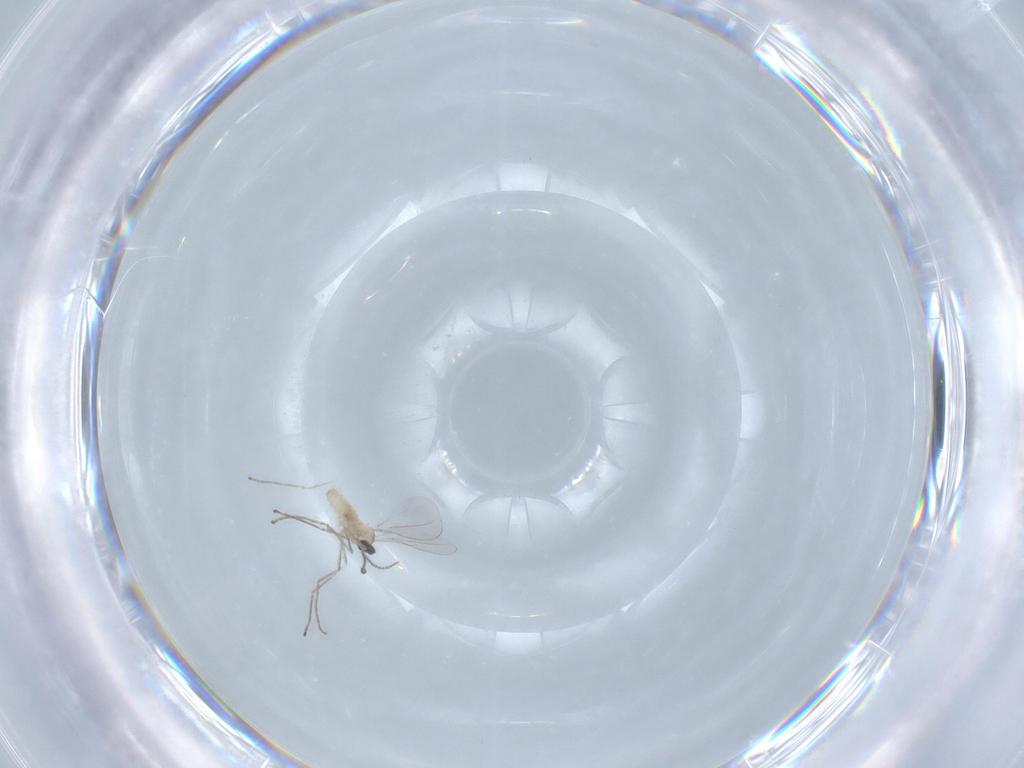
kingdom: Animalia
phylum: Arthropoda
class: Insecta
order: Diptera
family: Cecidomyiidae
